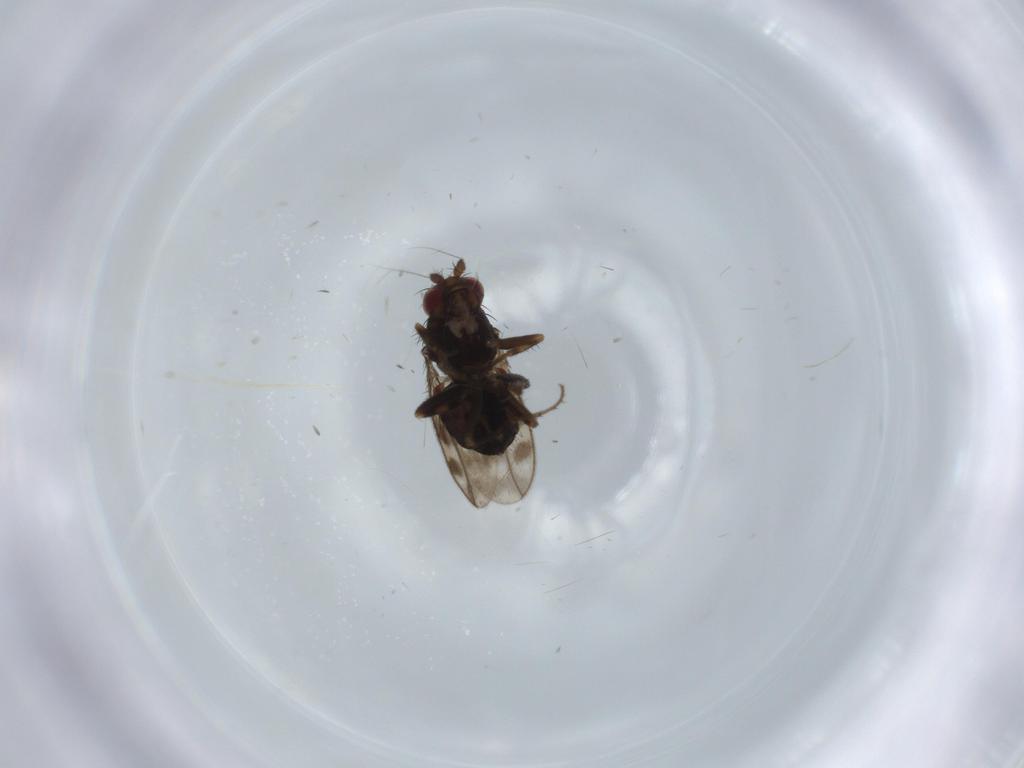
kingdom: Animalia
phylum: Arthropoda
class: Insecta
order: Diptera
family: Sphaeroceridae
